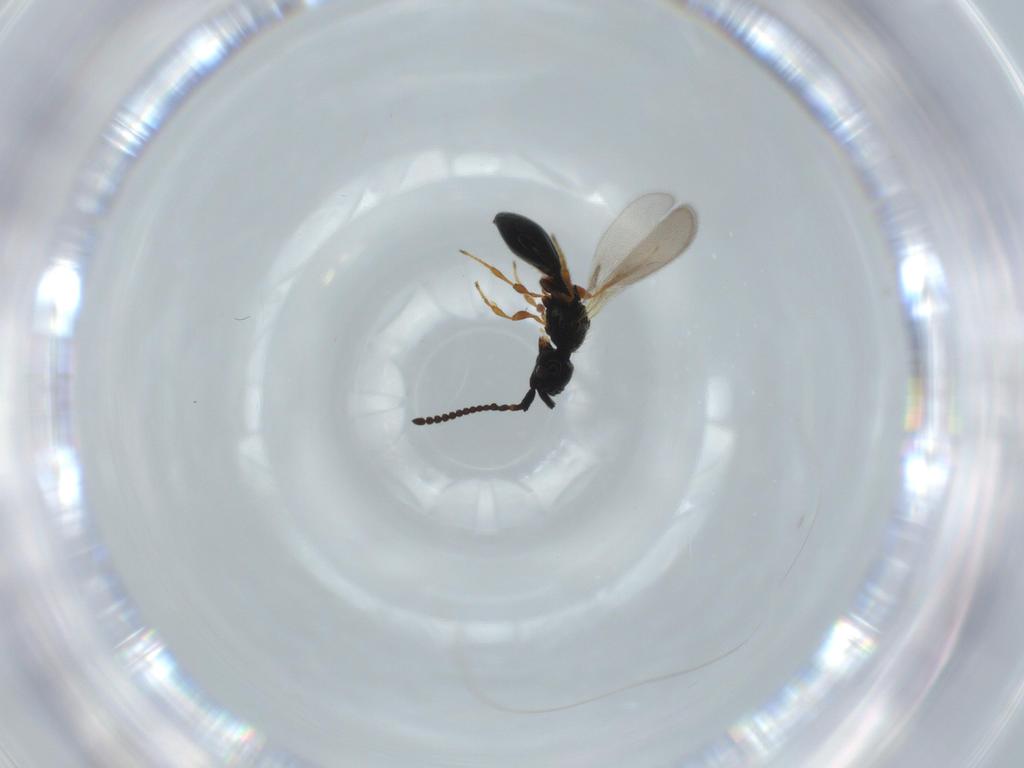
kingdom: Animalia
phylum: Arthropoda
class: Insecta
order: Hymenoptera
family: Diapriidae
